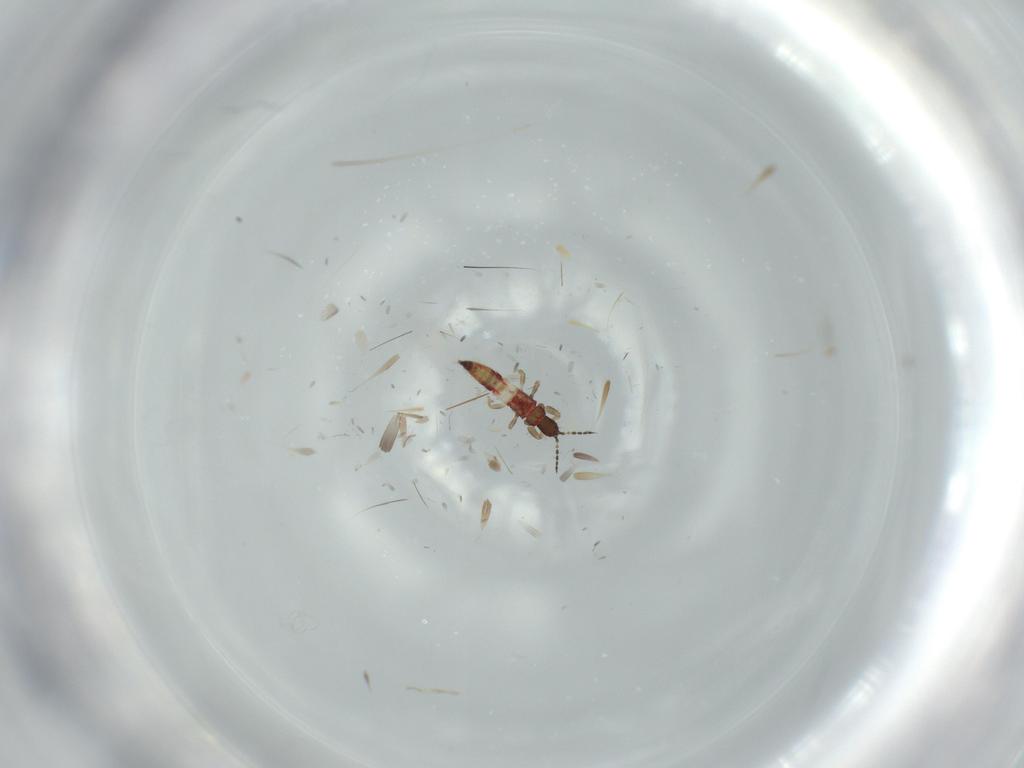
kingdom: Animalia
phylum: Arthropoda
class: Insecta
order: Thysanoptera
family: Phlaeothripidae
